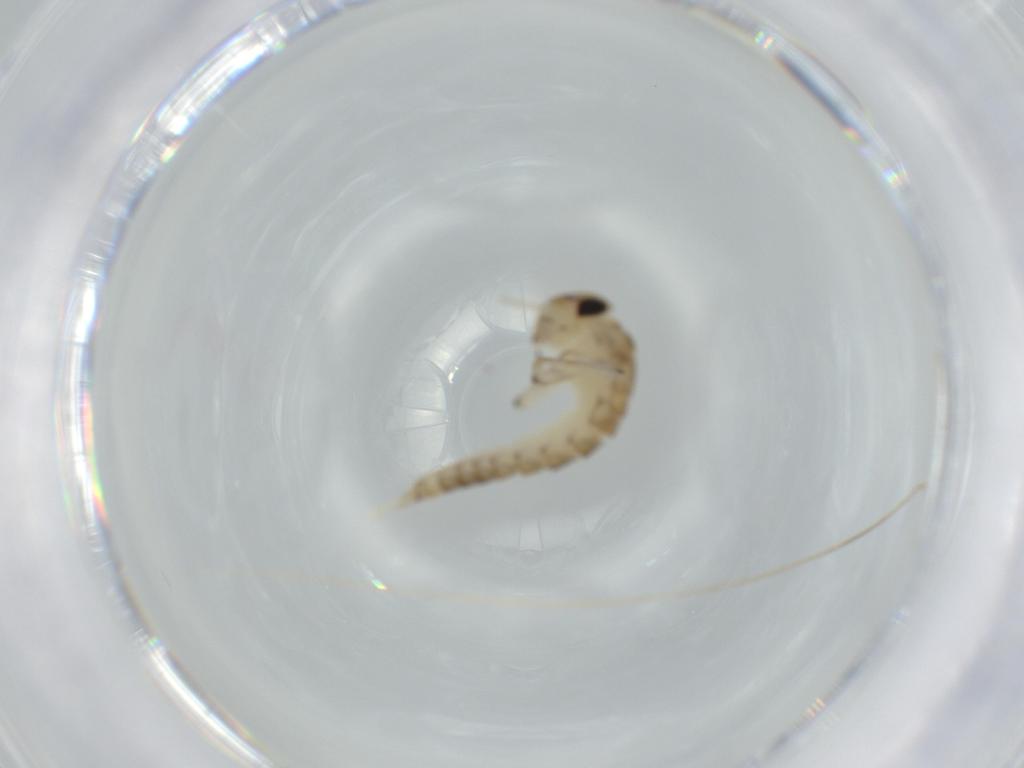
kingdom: Animalia
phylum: Arthropoda
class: Insecta
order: Ephemeroptera
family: Baetidae
